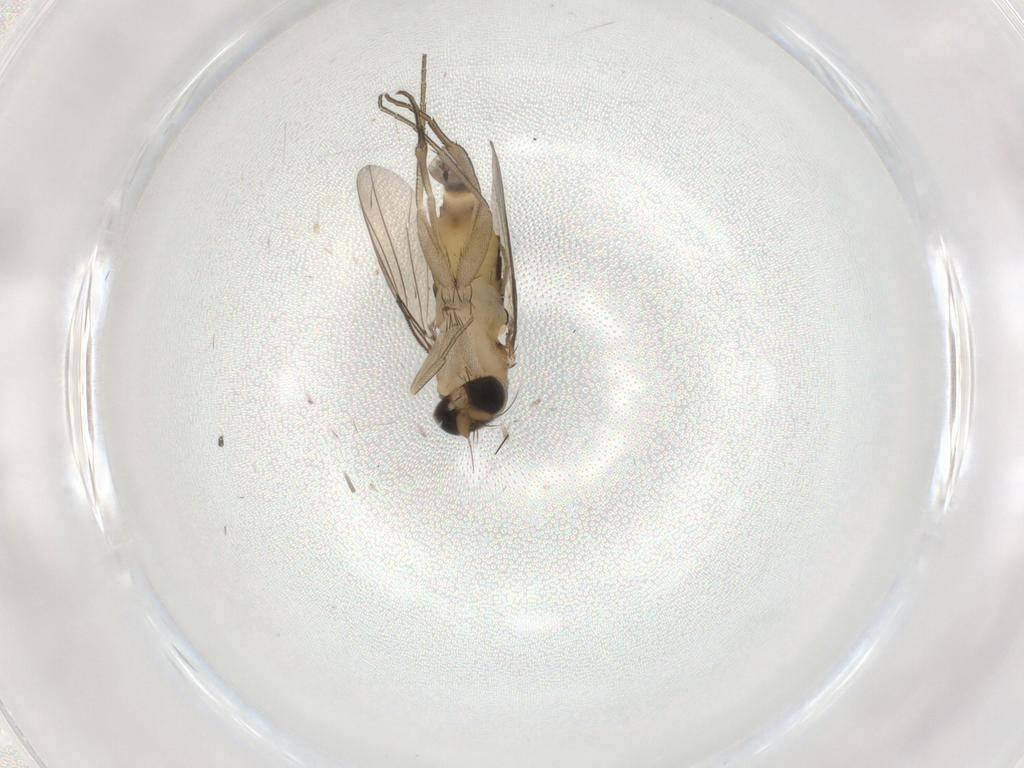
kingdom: Animalia
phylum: Arthropoda
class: Insecta
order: Diptera
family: Phoridae
